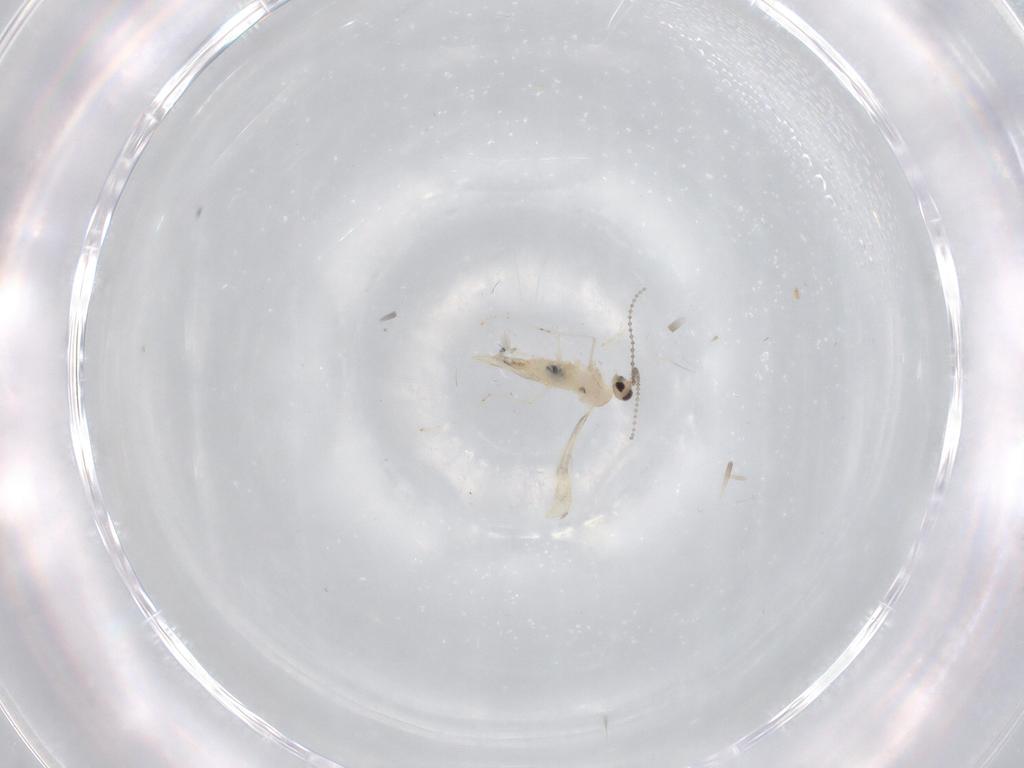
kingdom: Animalia
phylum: Arthropoda
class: Insecta
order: Diptera
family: Cecidomyiidae
